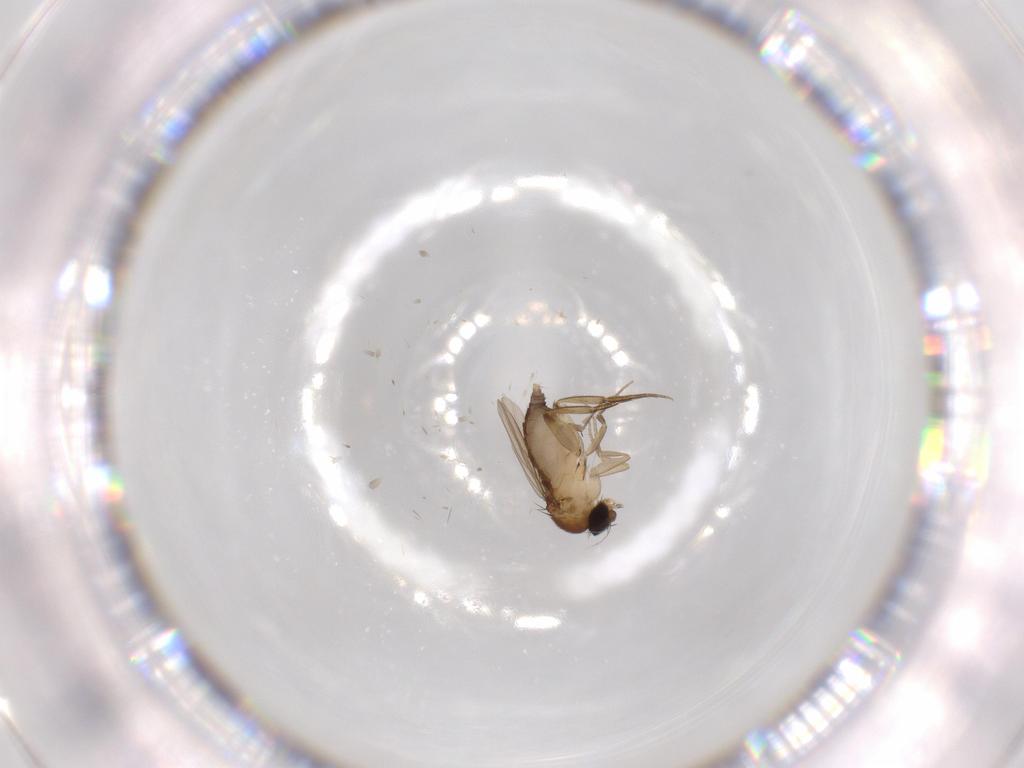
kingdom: Animalia
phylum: Arthropoda
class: Insecta
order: Diptera
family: Phoridae
